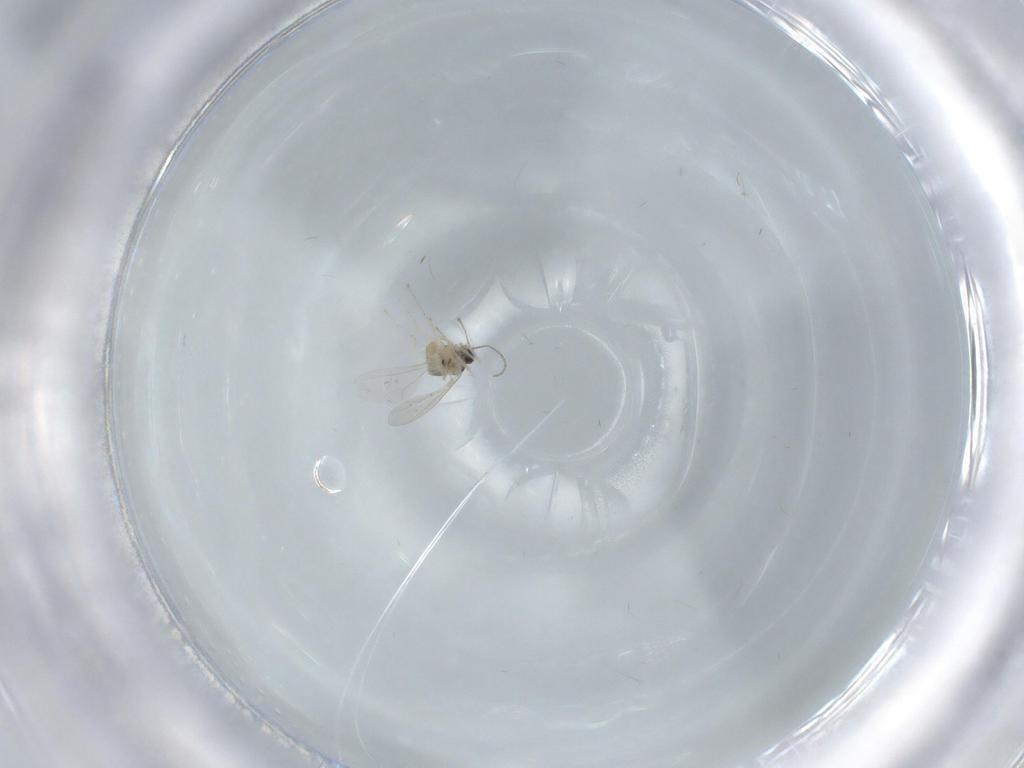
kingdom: Animalia
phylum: Arthropoda
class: Insecta
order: Diptera
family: Cecidomyiidae
